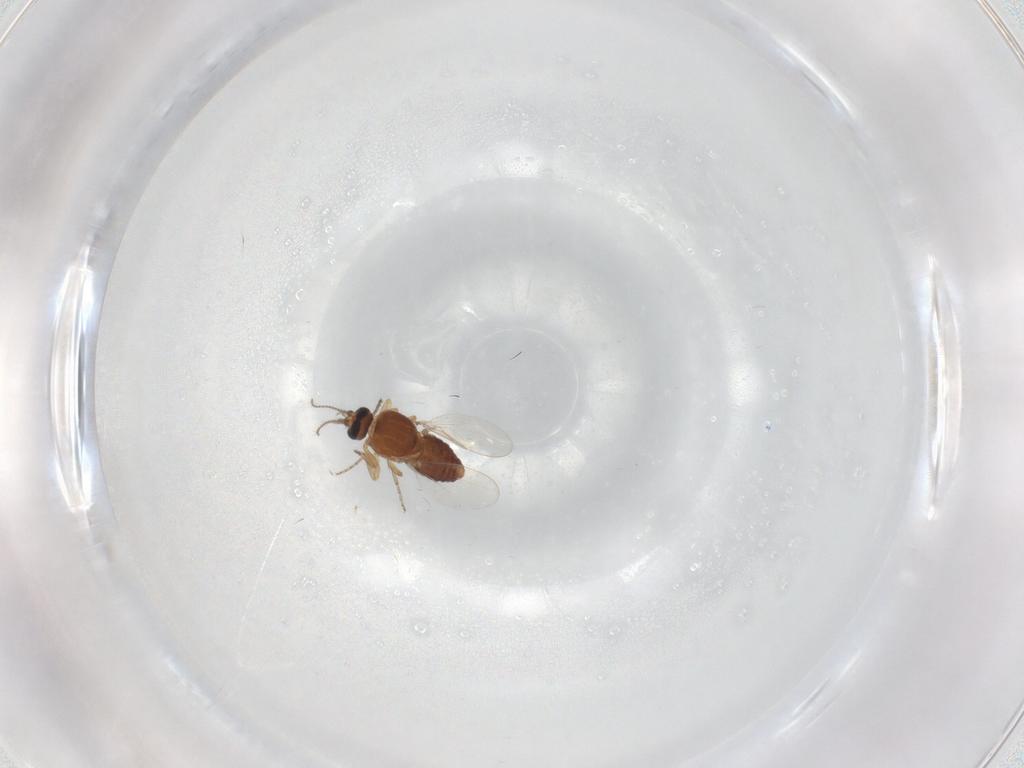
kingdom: Animalia
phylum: Arthropoda
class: Insecta
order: Diptera
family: Ceratopogonidae
